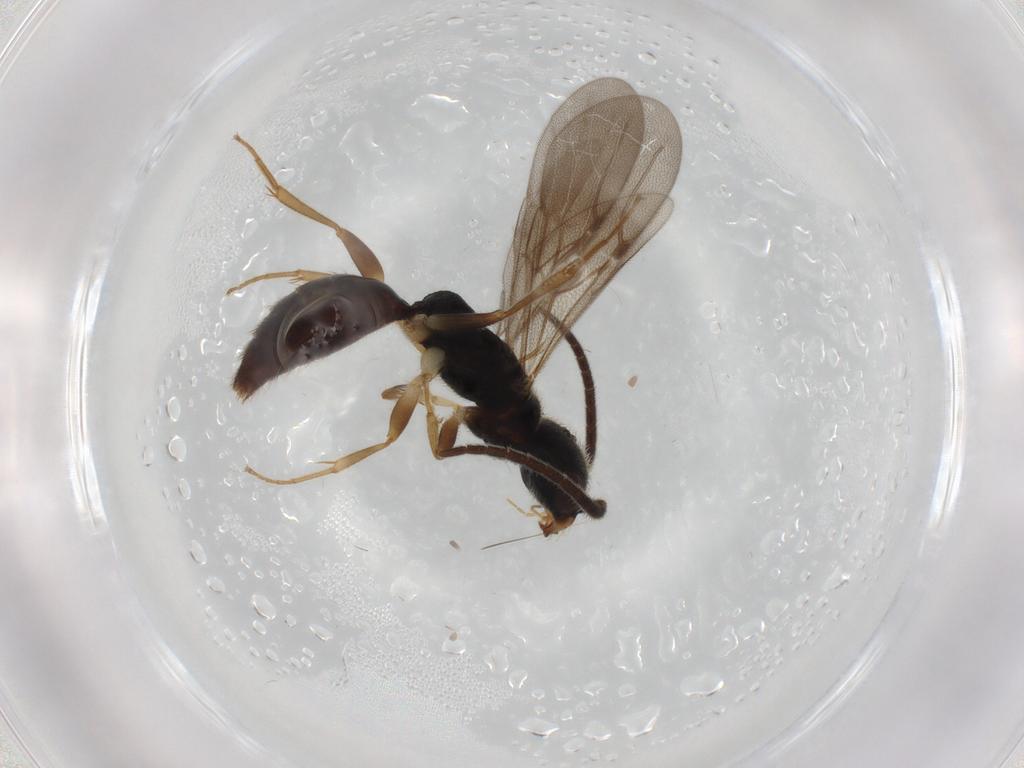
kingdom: Animalia
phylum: Arthropoda
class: Insecta
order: Hymenoptera
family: Bethylidae
